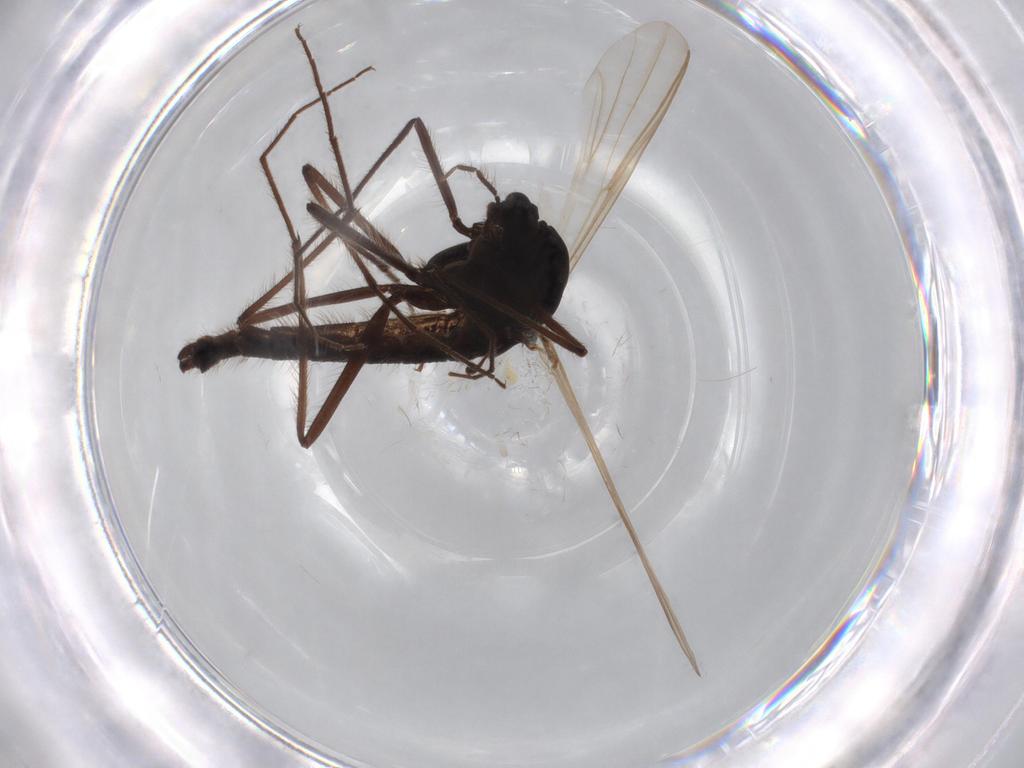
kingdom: Animalia
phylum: Arthropoda
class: Insecta
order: Diptera
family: Chironomidae
